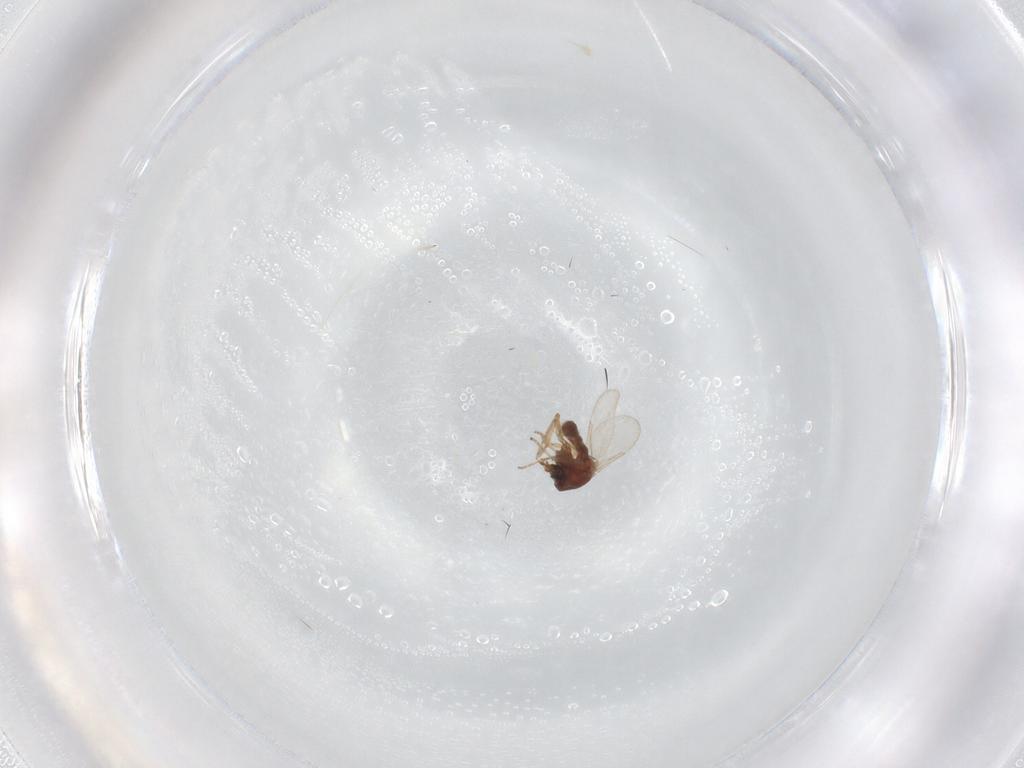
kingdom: Animalia
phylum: Arthropoda
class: Insecta
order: Diptera
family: Ceratopogonidae
